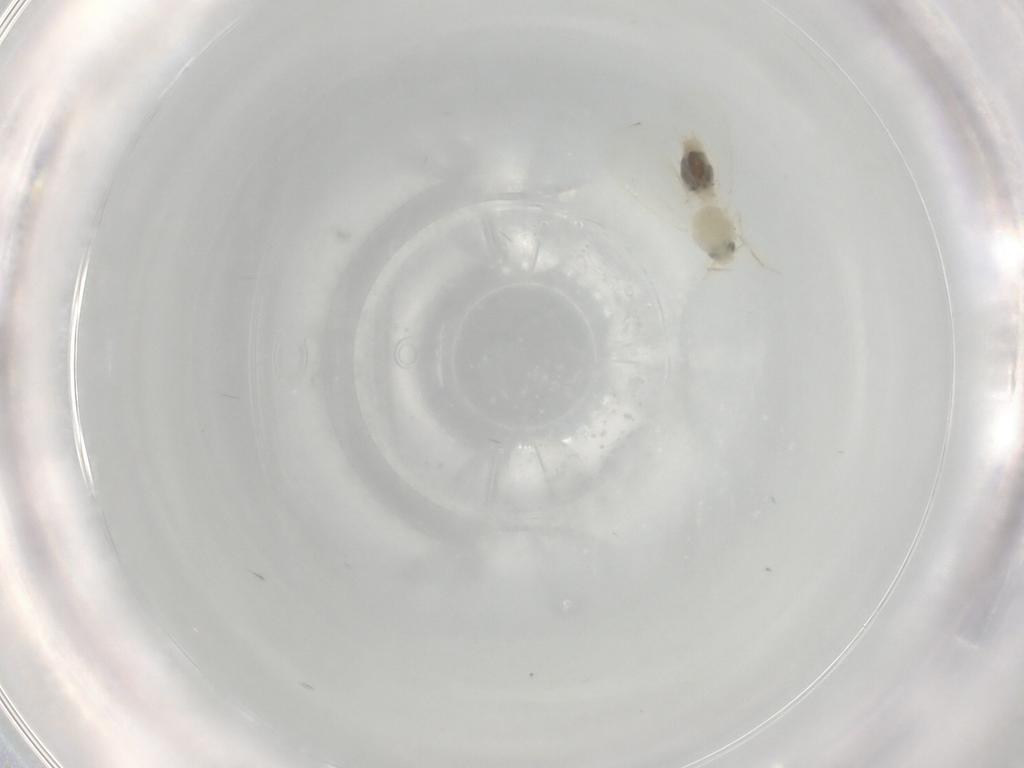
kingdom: Animalia
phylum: Arthropoda
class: Insecta
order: Hemiptera
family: Aleyrodidae
